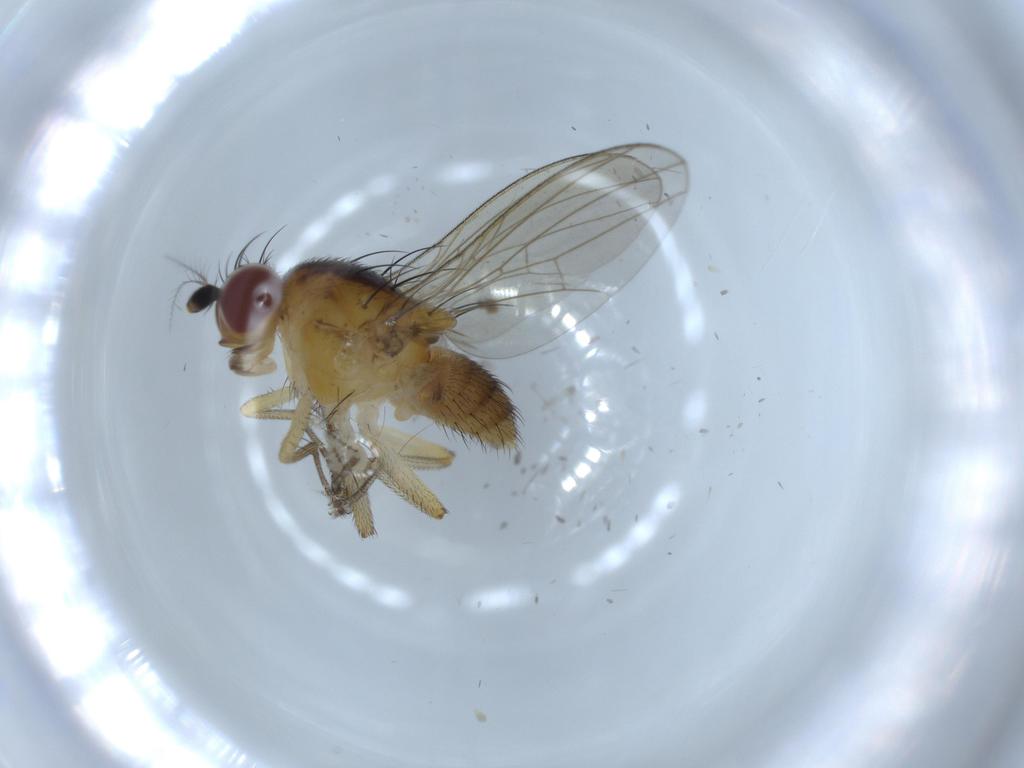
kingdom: Animalia
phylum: Arthropoda
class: Insecta
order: Diptera
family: Lauxaniidae
